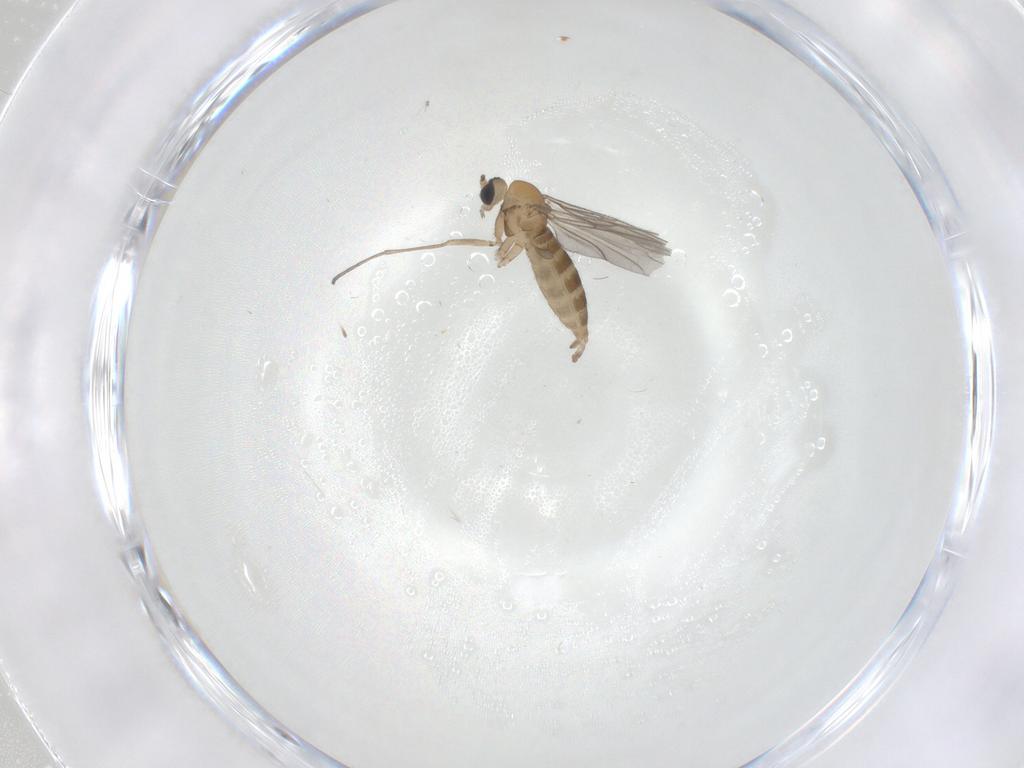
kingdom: Animalia
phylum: Arthropoda
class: Insecta
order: Diptera
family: Sciaridae
